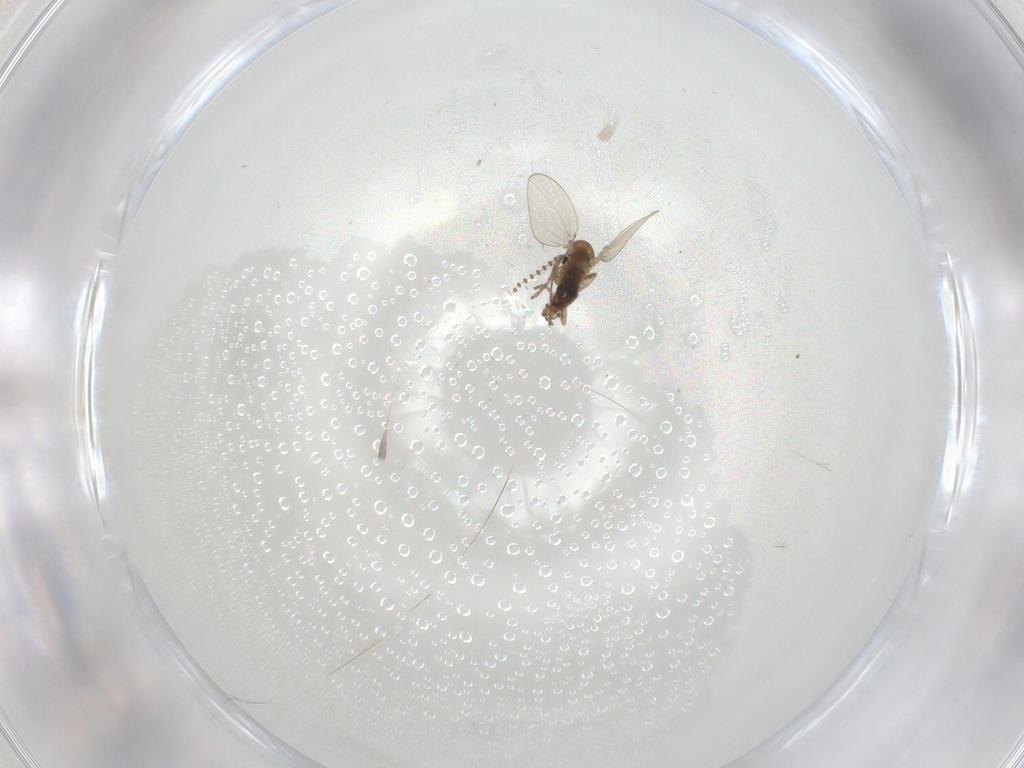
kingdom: Animalia
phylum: Arthropoda
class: Insecta
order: Diptera
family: Psychodidae
